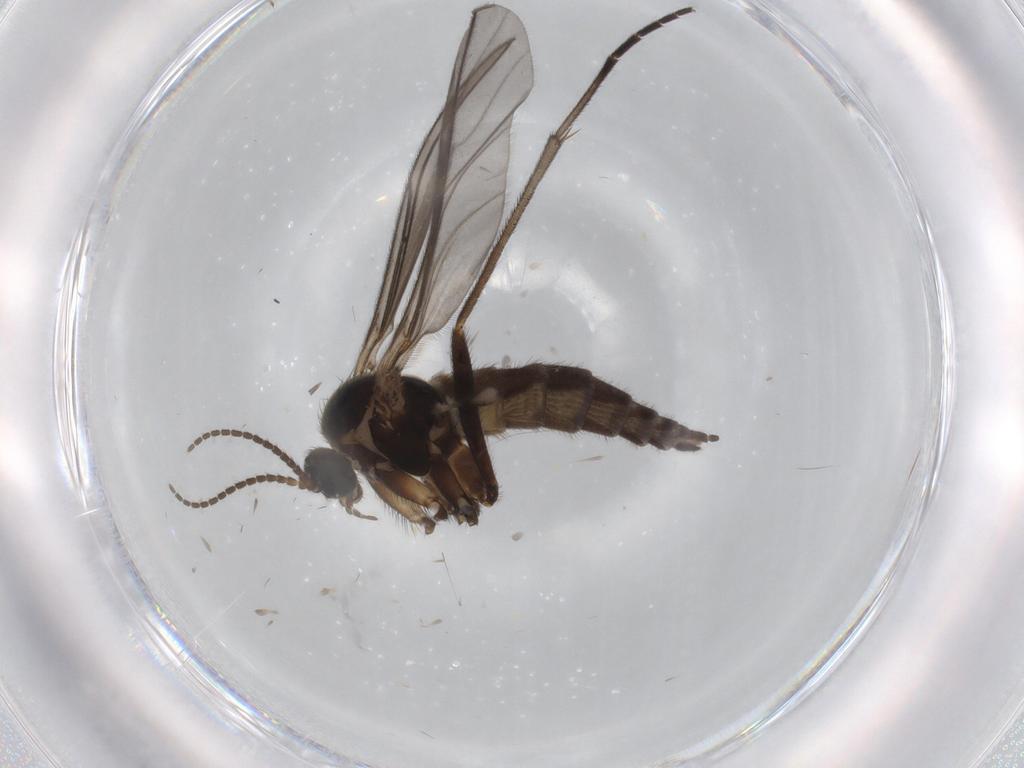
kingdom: Animalia
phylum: Arthropoda
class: Insecta
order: Diptera
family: Sciaridae
